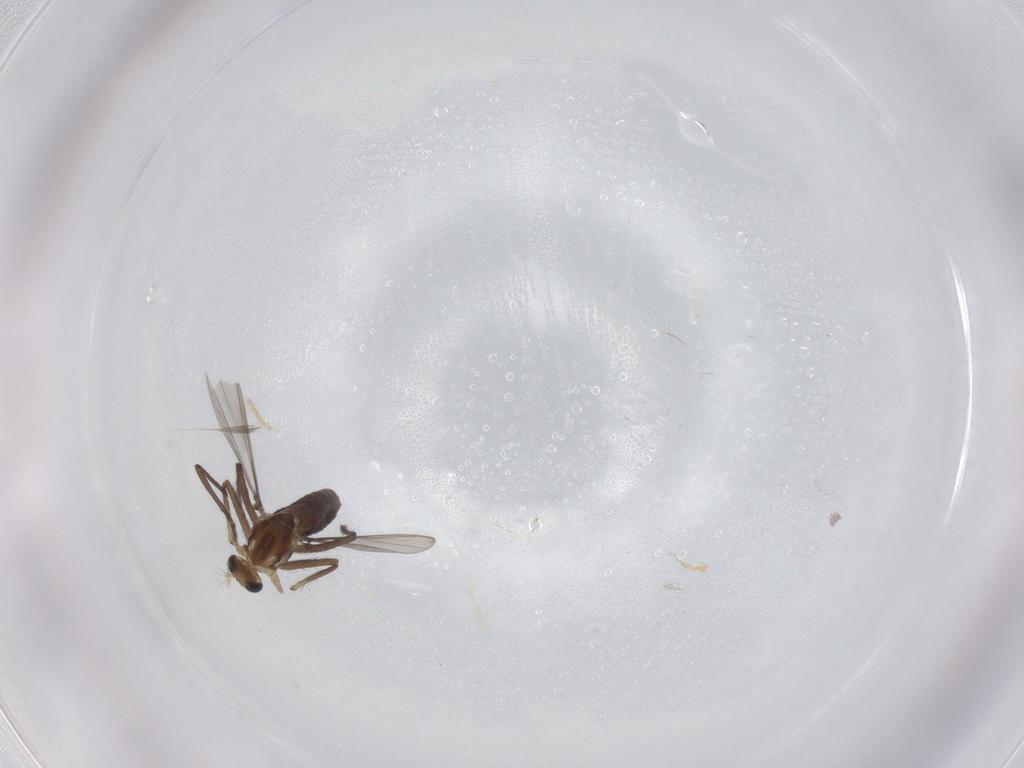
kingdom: Animalia
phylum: Arthropoda
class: Insecta
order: Diptera
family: Chironomidae
